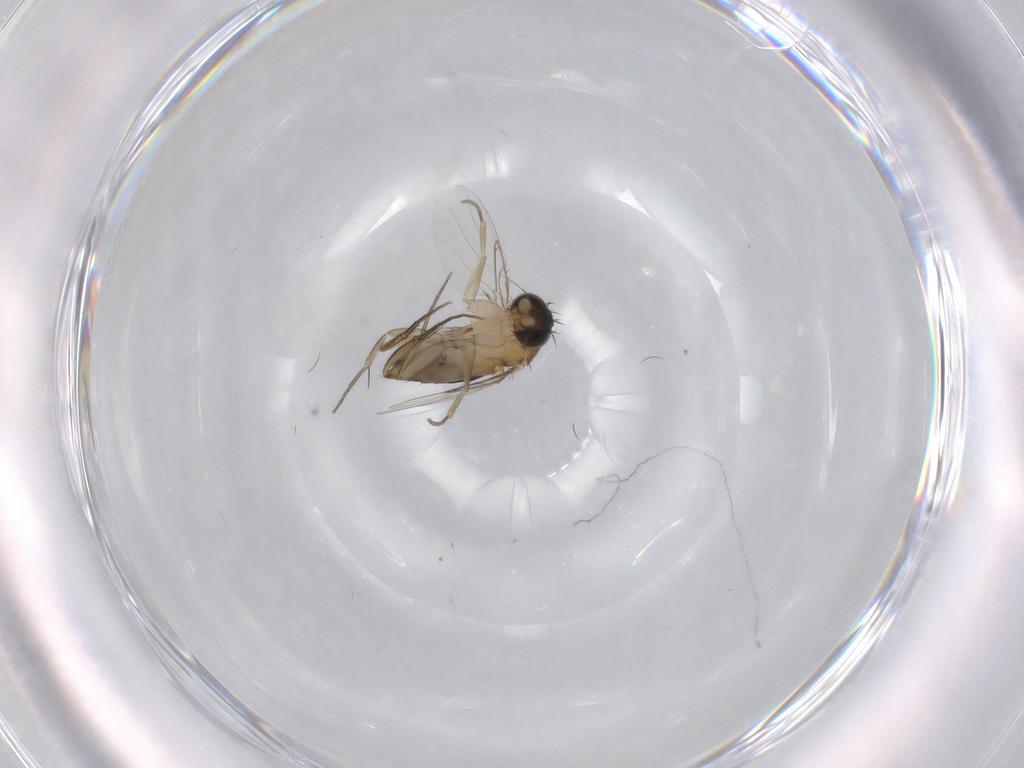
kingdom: Animalia
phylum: Arthropoda
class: Insecta
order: Diptera
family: Phoridae
